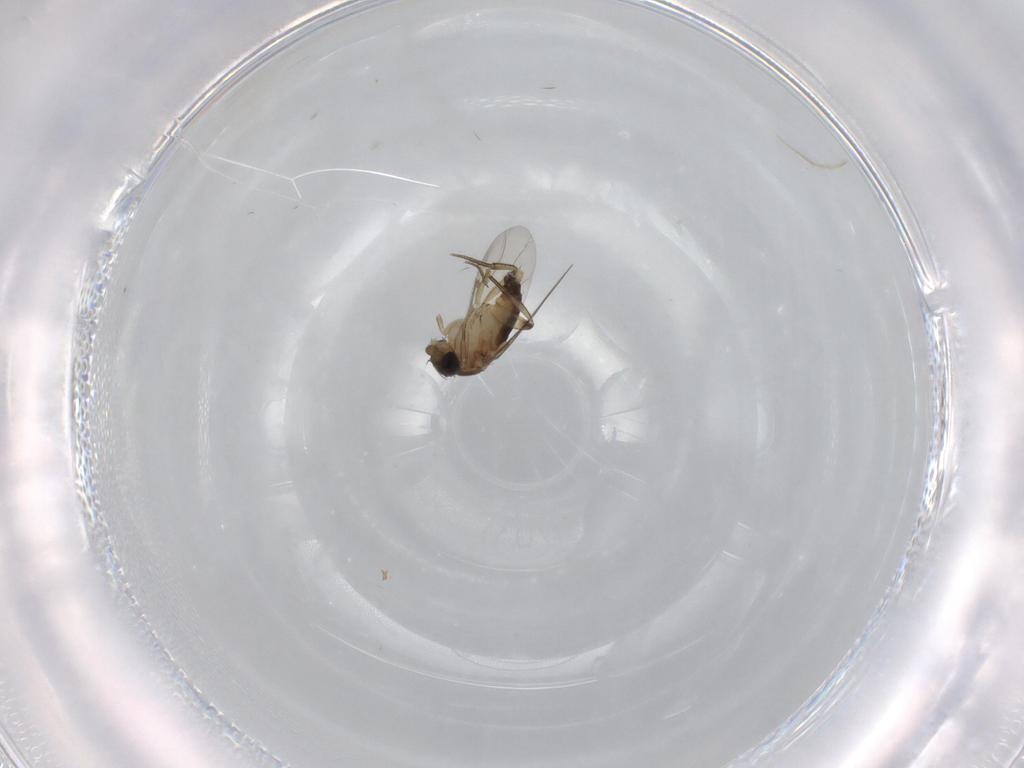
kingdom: Animalia
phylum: Arthropoda
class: Insecta
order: Diptera
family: Phoridae
